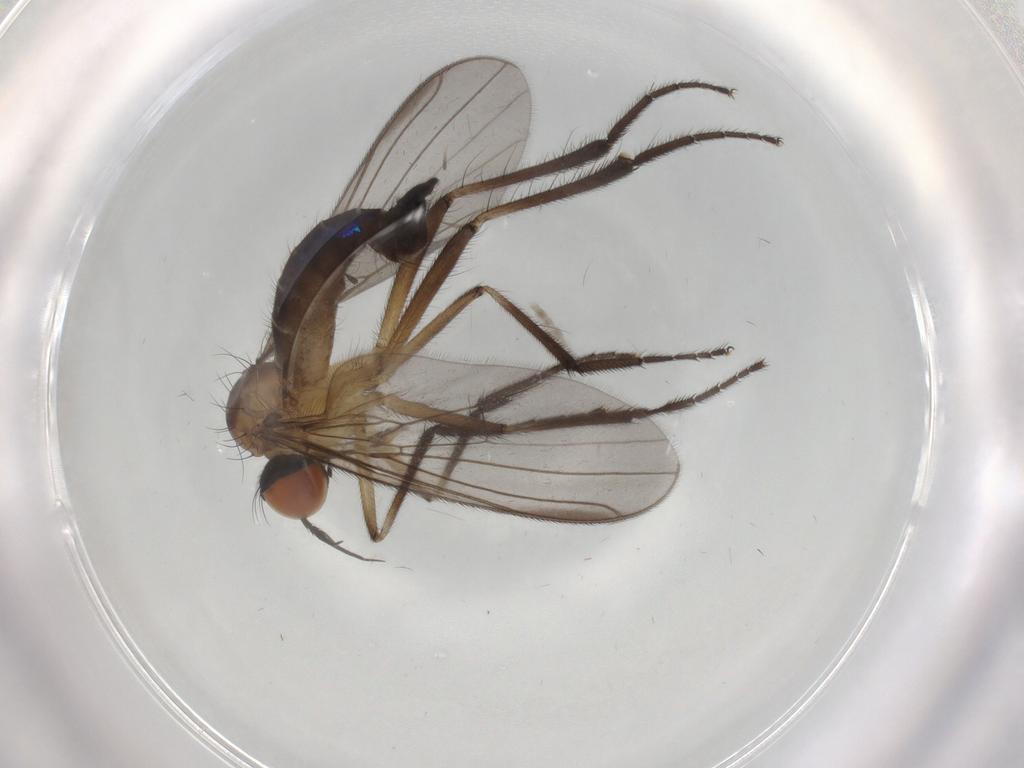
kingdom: Animalia
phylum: Arthropoda
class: Insecta
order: Diptera
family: Empididae
